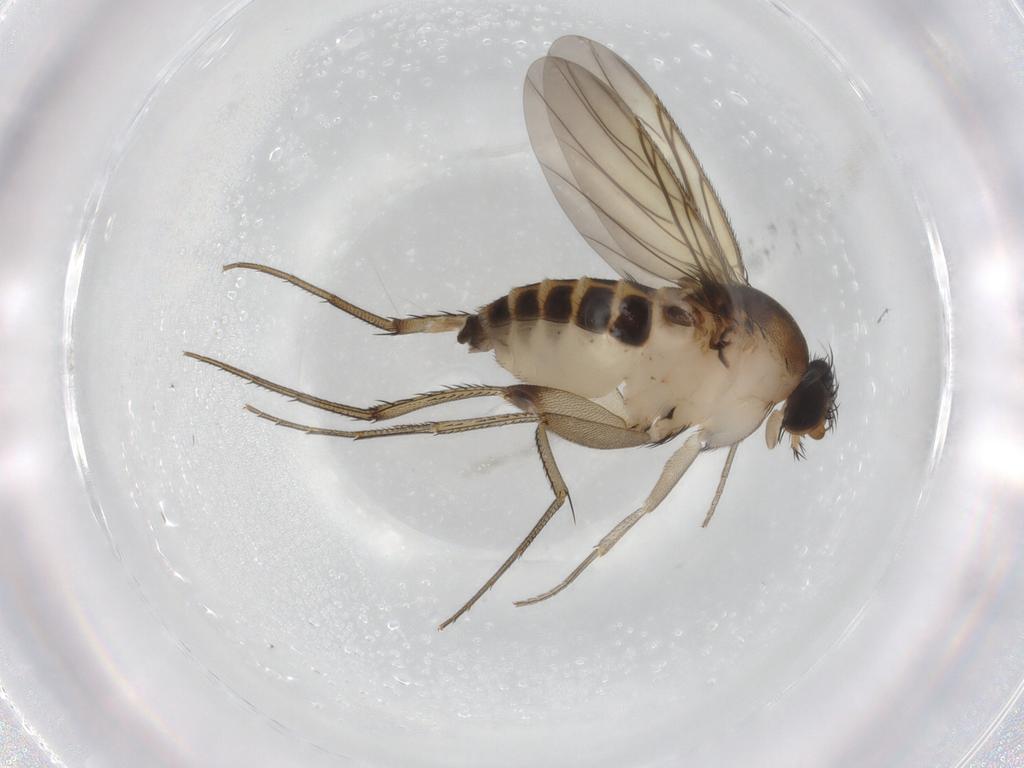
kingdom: Animalia
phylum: Arthropoda
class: Insecta
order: Diptera
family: Phoridae
